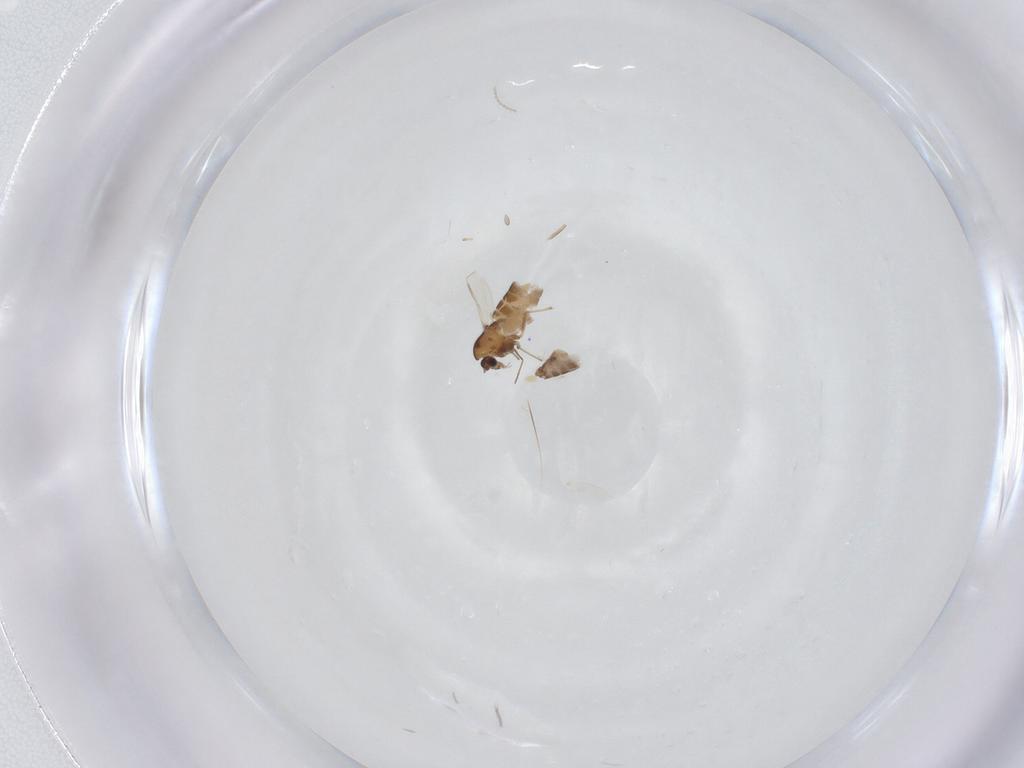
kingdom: Animalia
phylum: Arthropoda
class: Insecta
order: Diptera
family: Chironomidae
